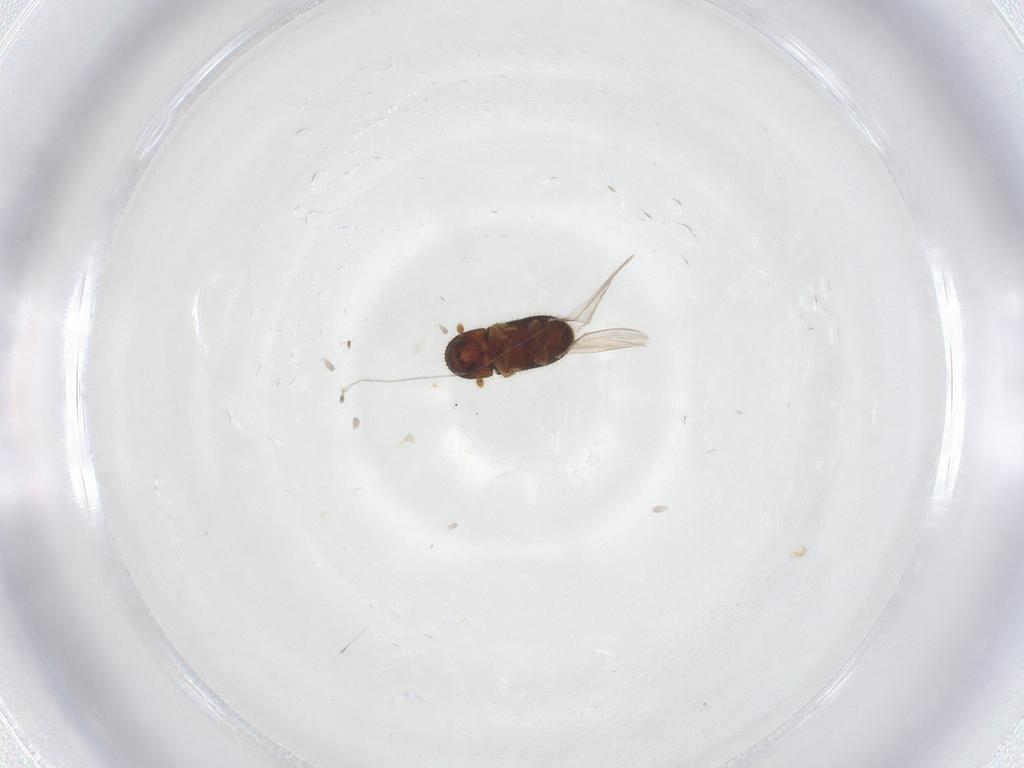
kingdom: Animalia
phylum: Arthropoda
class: Insecta
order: Coleoptera
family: Curculionidae
